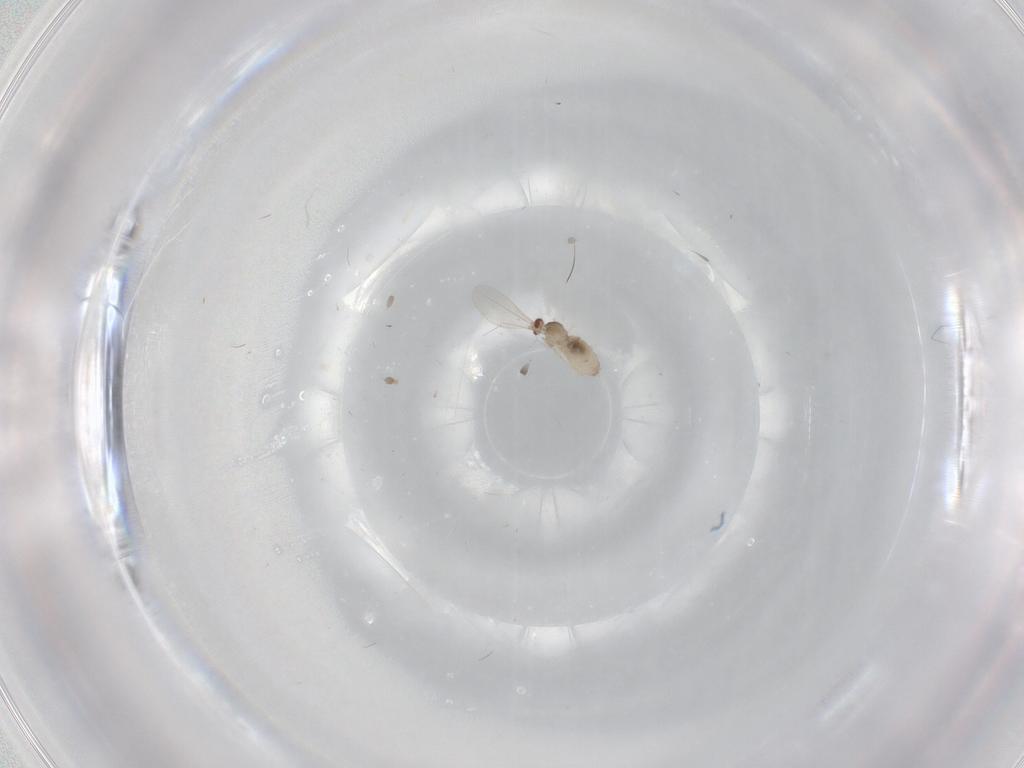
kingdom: Animalia
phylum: Arthropoda
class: Insecta
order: Diptera
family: Cecidomyiidae
